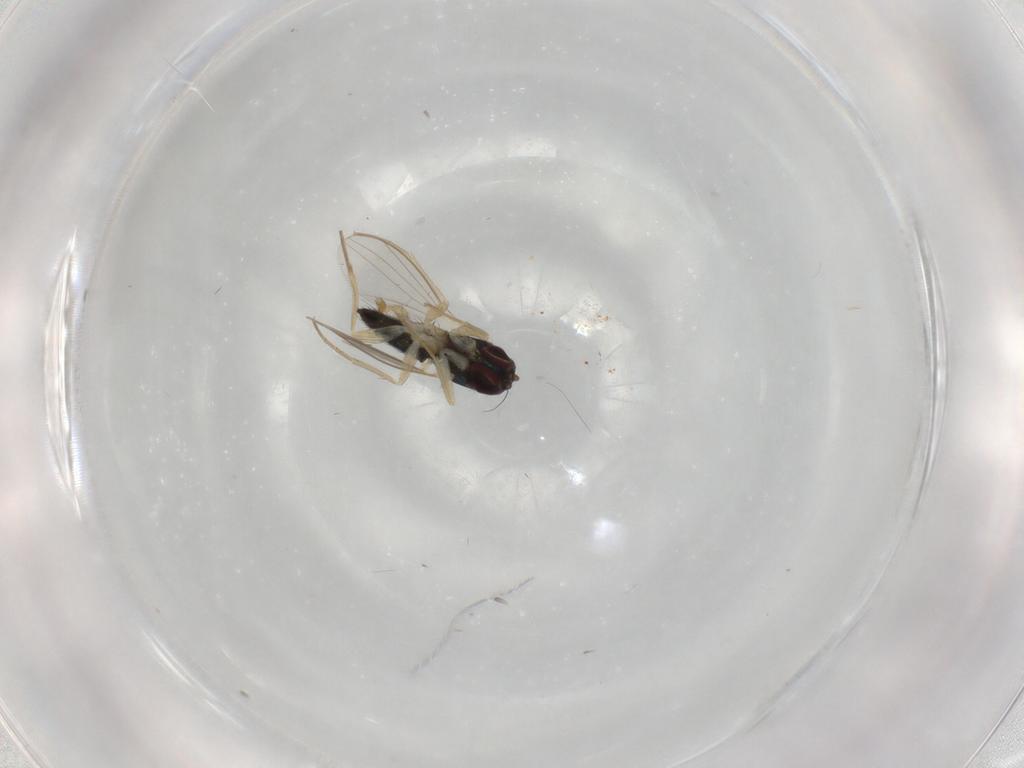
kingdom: Animalia
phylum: Arthropoda
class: Insecta
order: Diptera
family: Dolichopodidae
